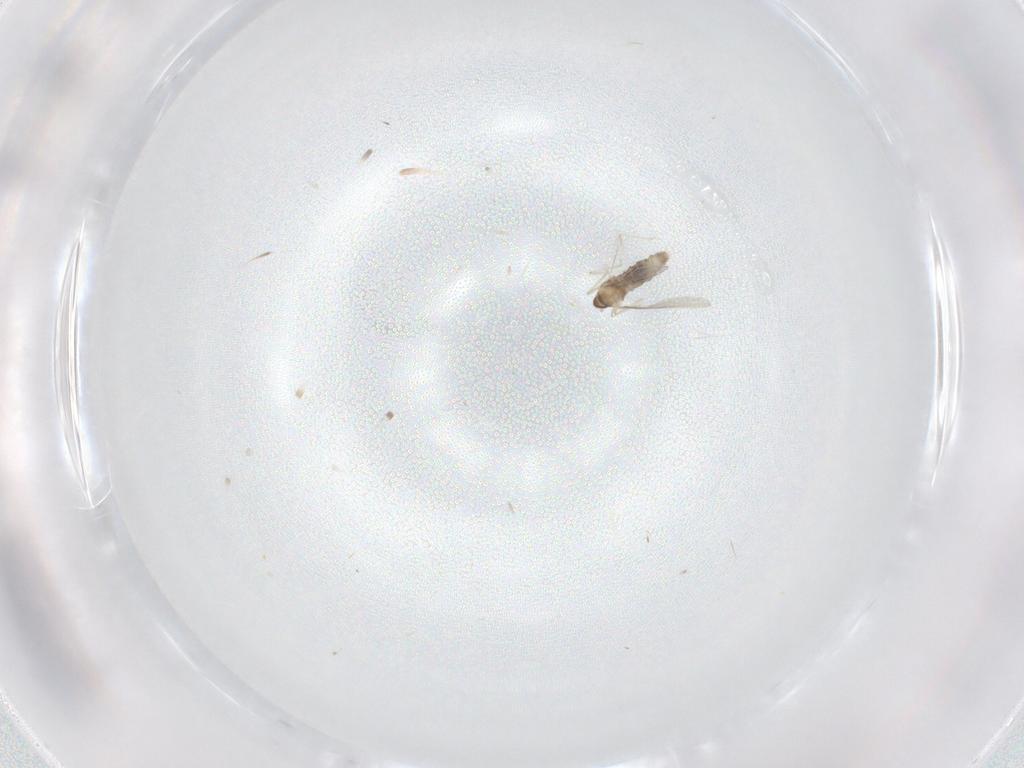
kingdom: Animalia
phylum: Arthropoda
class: Insecta
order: Diptera
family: Cecidomyiidae
